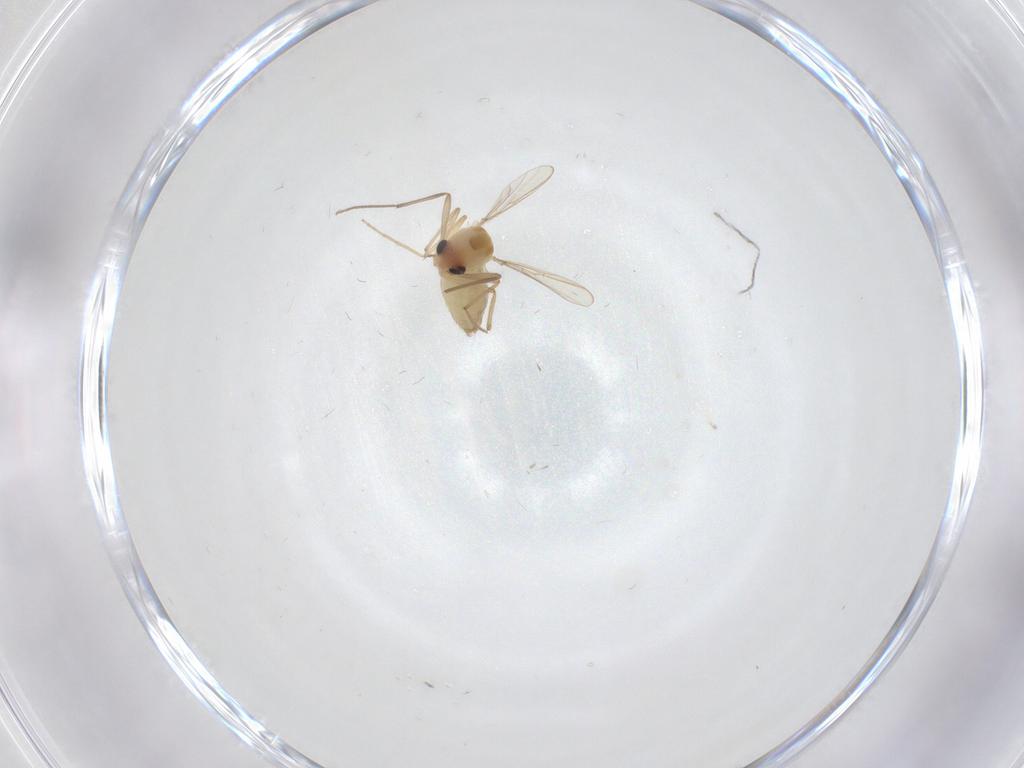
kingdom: Animalia
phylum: Arthropoda
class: Insecta
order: Diptera
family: Chironomidae
